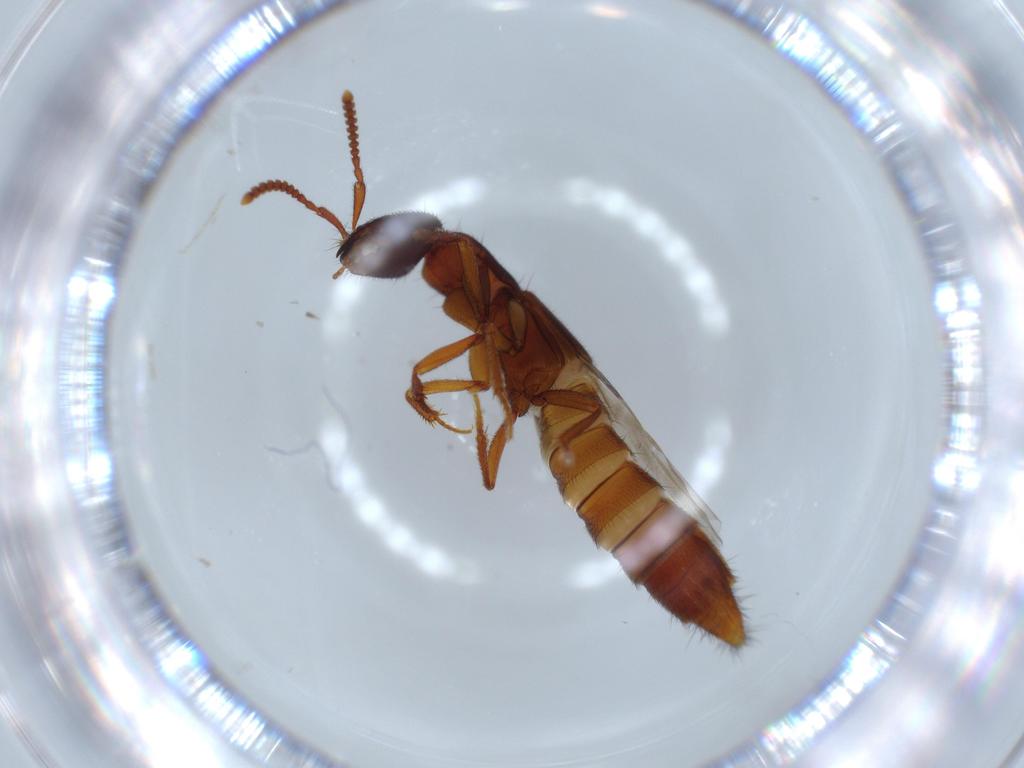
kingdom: Animalia
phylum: Arthropoda
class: Insecta
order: Coleoptera
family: Staphylinidae
